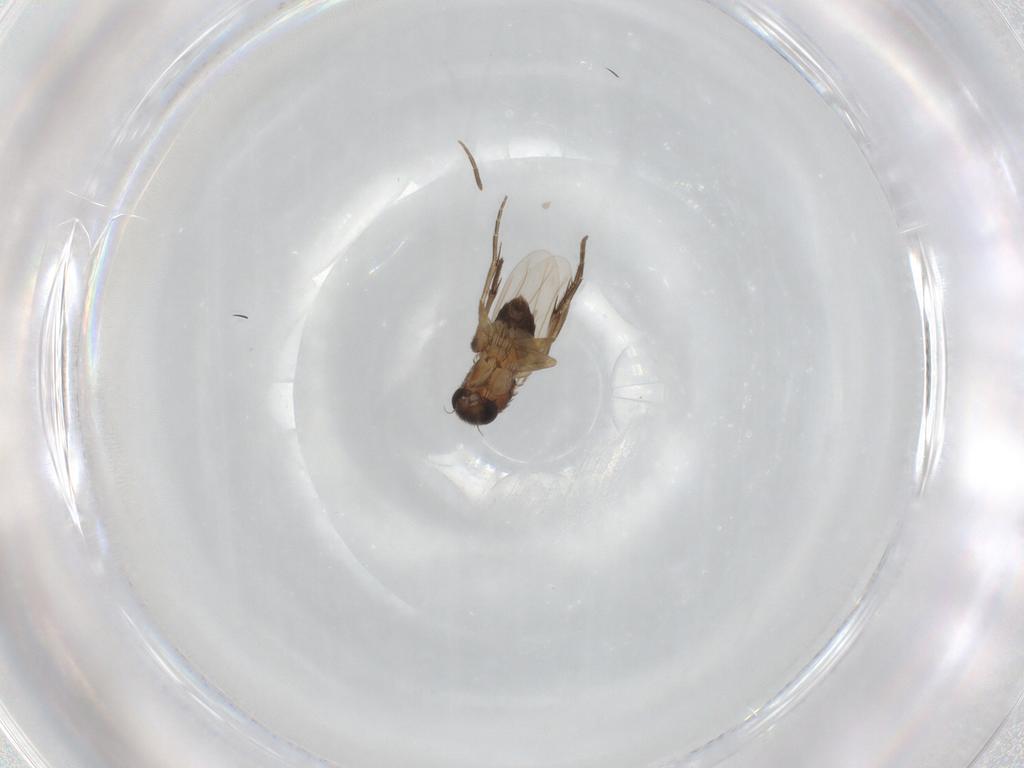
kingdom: Animalia
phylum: Arthropoda
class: Insecta
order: Diptera
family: Phoridae
